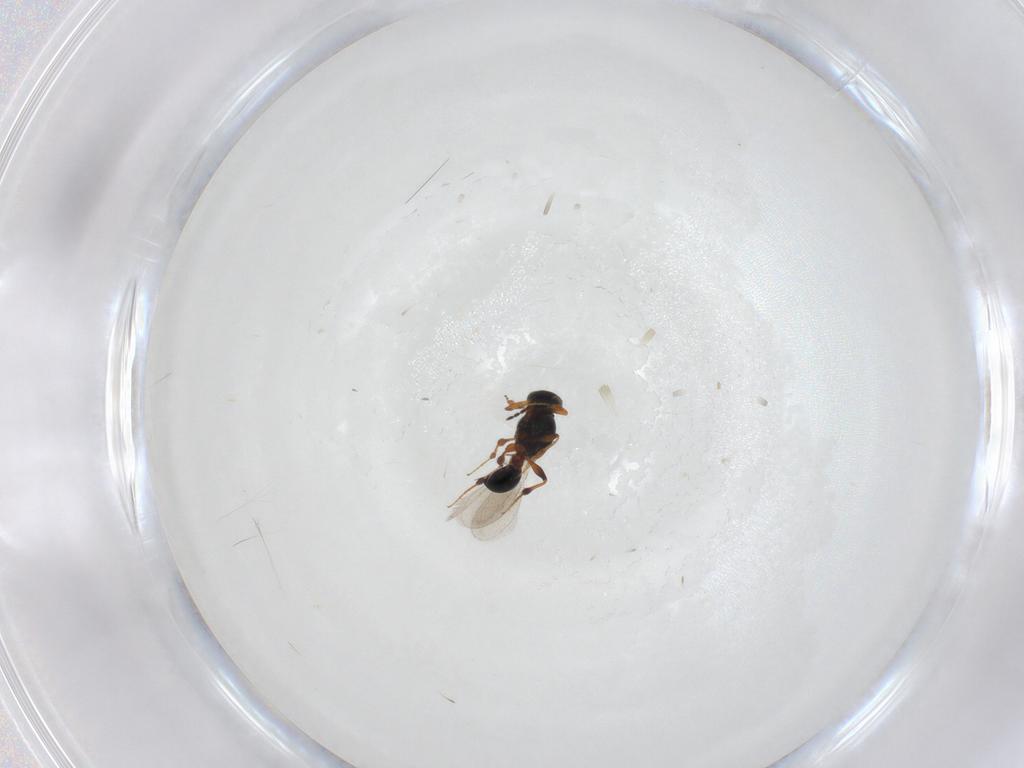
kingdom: Animalia
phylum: Arthropoda
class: Insecta
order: Hymenoptera
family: Platygastridae
